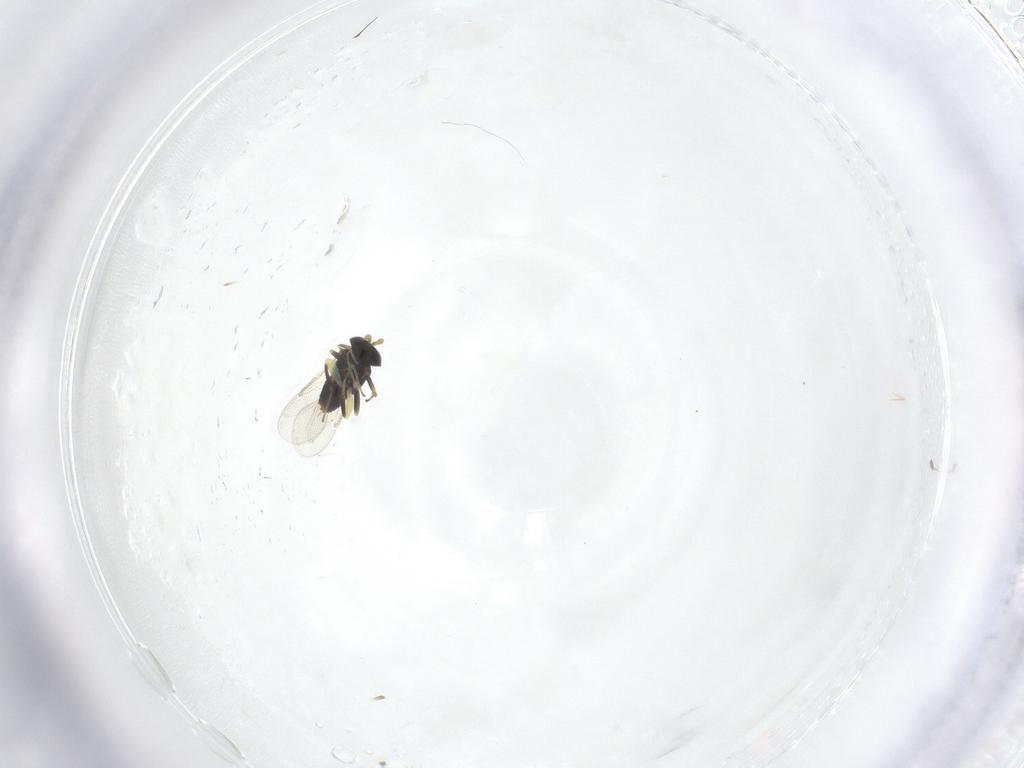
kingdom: Animalia
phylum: Arthropoda
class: Insecta
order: Hymenoptera
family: Aphelinidae
